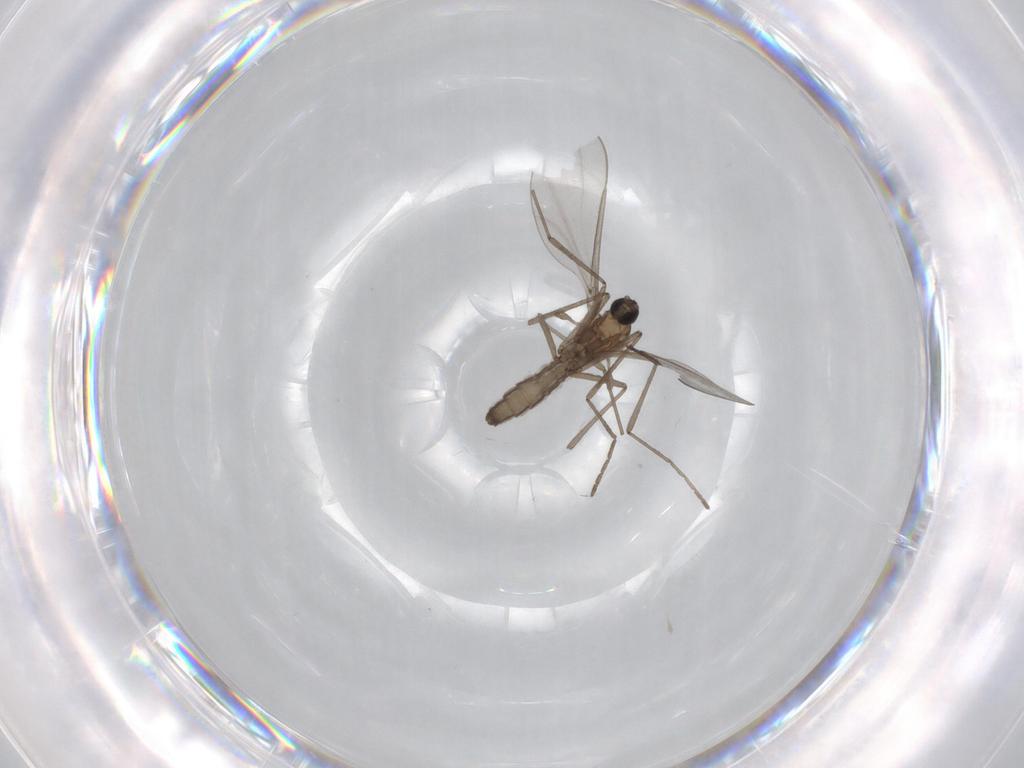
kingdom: Animalia
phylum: Arthropoda
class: Insecta
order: Diptera
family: Cecidomyiidae
